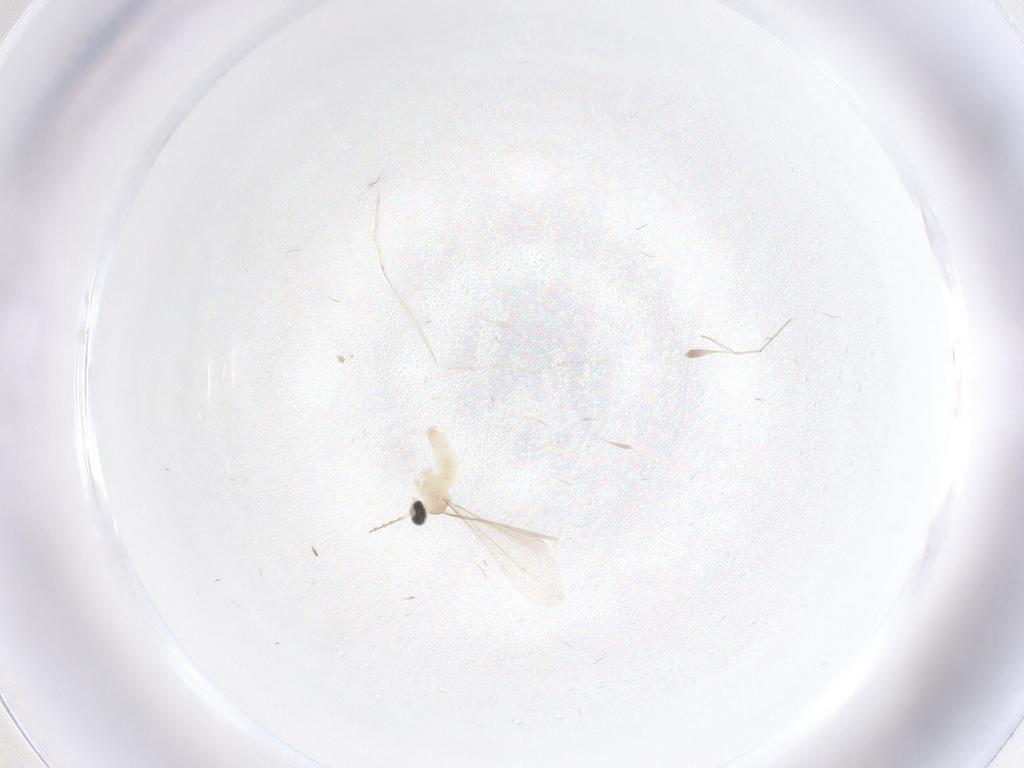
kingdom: Animalia
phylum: Arthropoda
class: Insecta
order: Diptera
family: Cecidomyiidae
